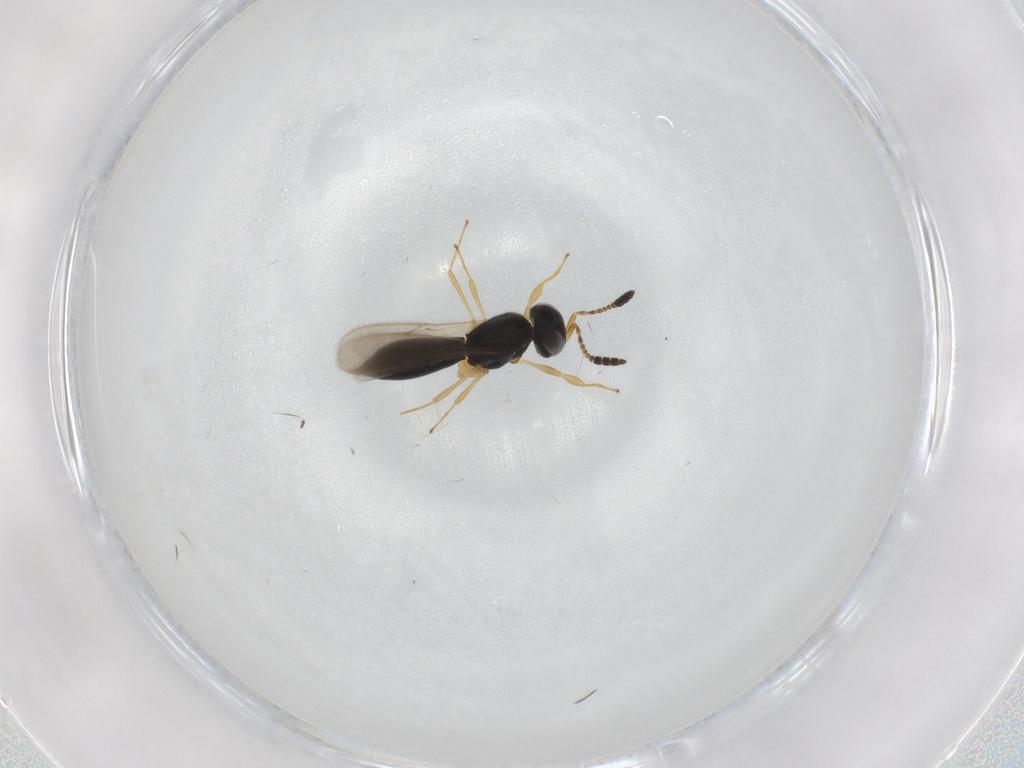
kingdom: Animalia
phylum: Arthropoda
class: Insecta
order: Hymenoptera
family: Scelionidae
